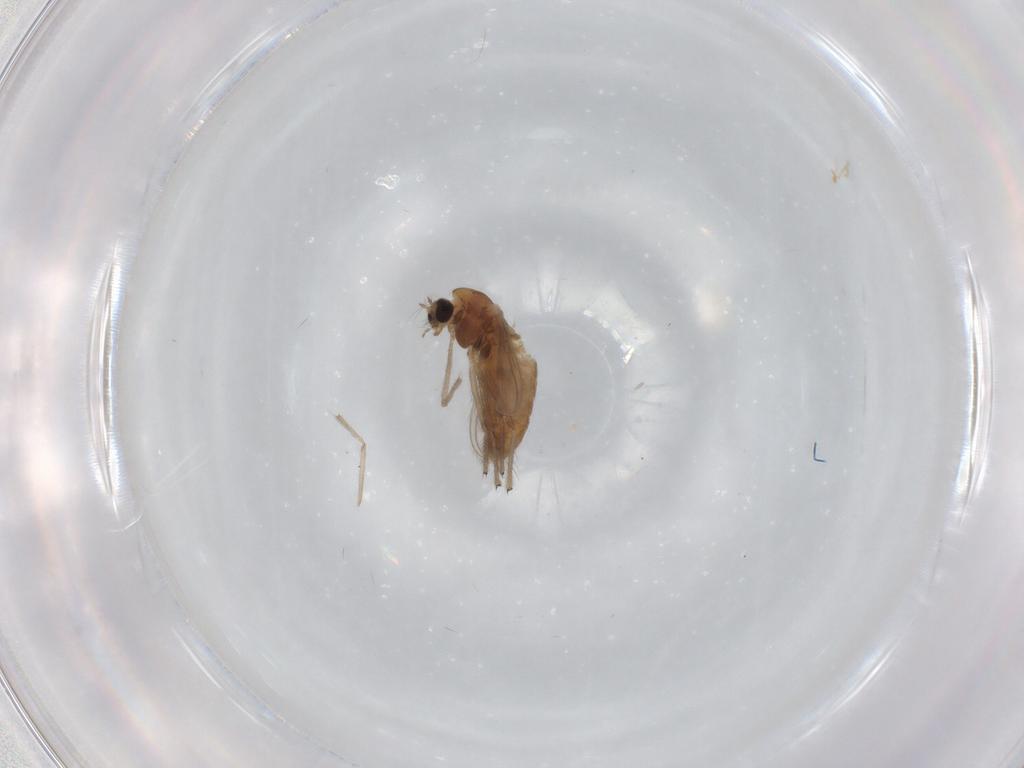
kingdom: Animalia
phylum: Arthropoda
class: Insecta
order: Diptera
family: Chironomidae
